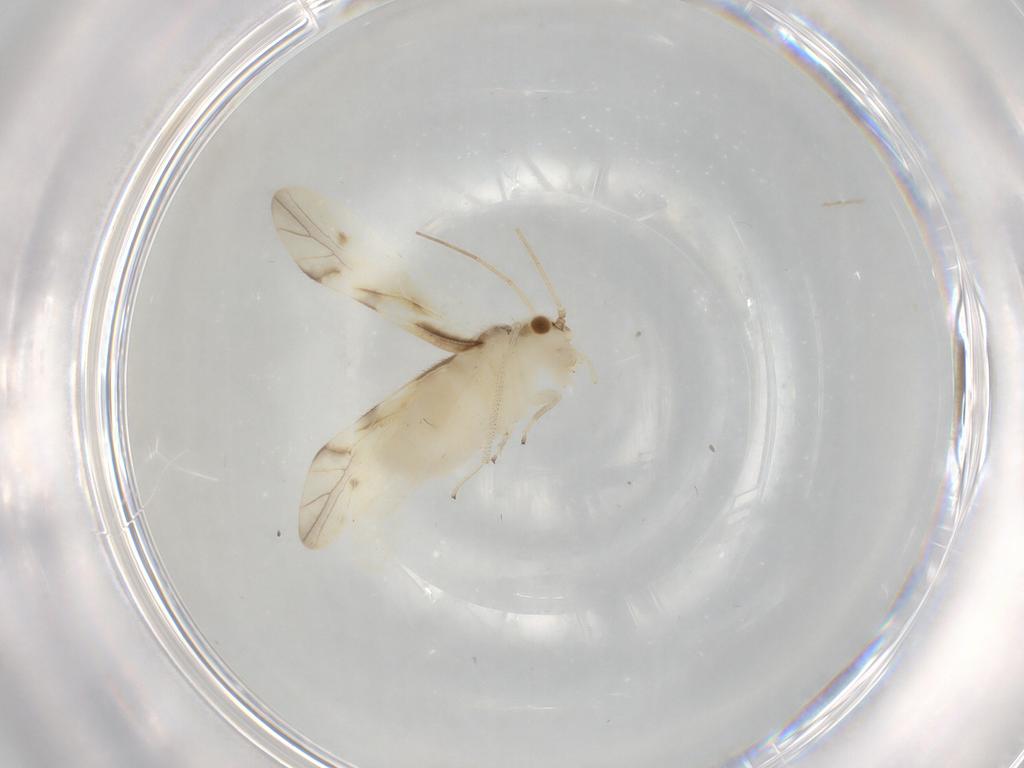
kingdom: Animalia
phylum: Arthropoda
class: Insecta
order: Psocodea
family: Caeciliusidae
